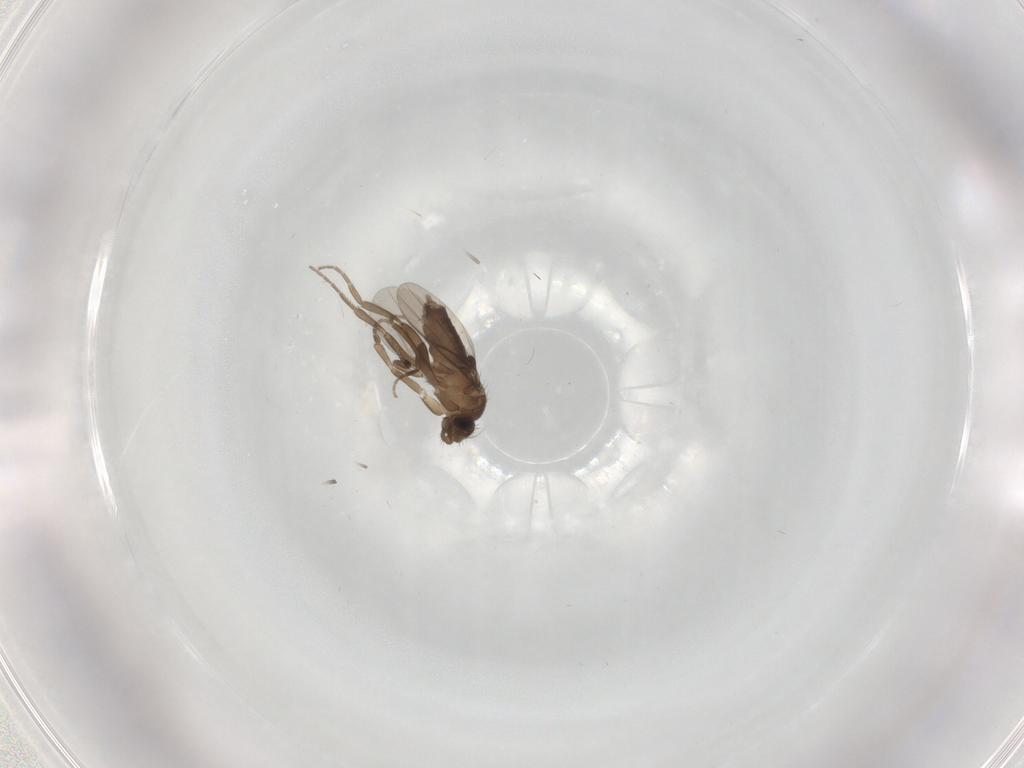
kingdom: Animalia
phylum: Arthropoda
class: Insecta
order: Diptera
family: Phoridae
